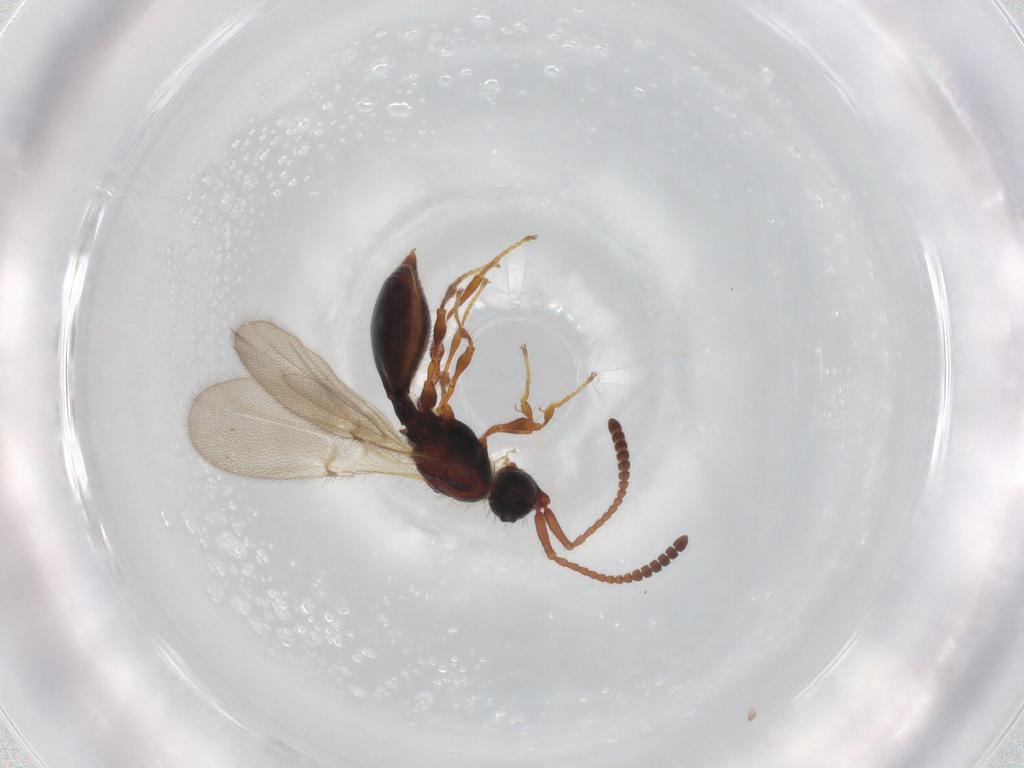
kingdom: Animalia
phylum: Arthropoda
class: Insecta
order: Hymenoptera
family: Diapriidae
